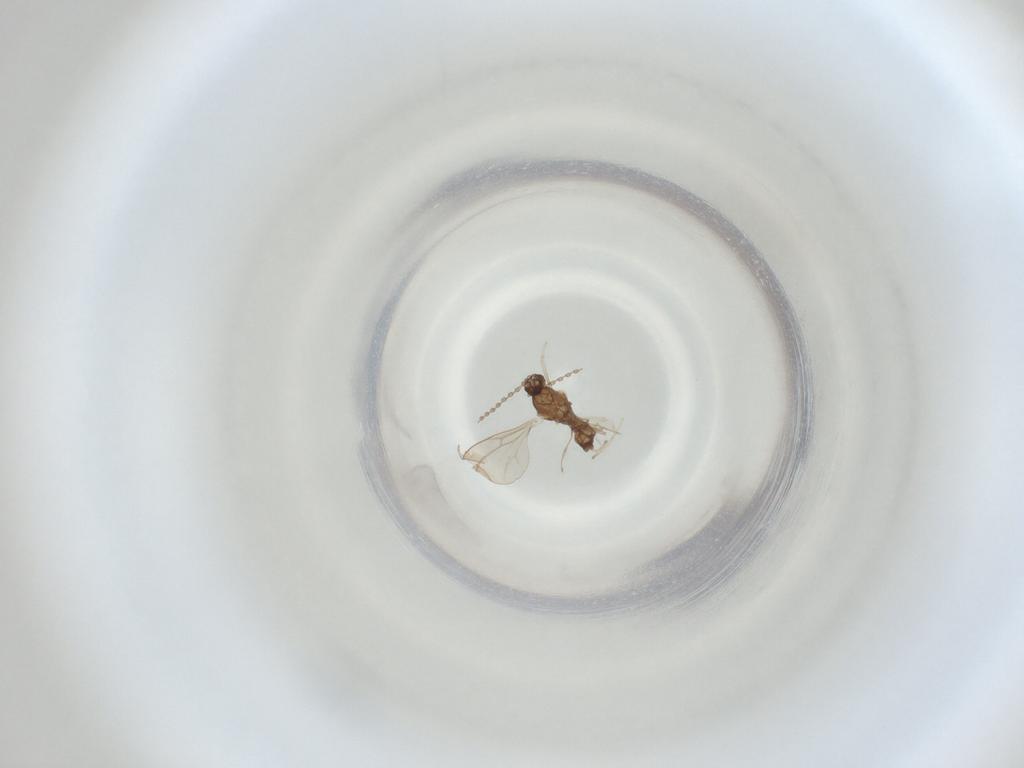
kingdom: Animalia
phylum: Arthropoda
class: Insecta
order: Diptera
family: Cecidomyiidae
